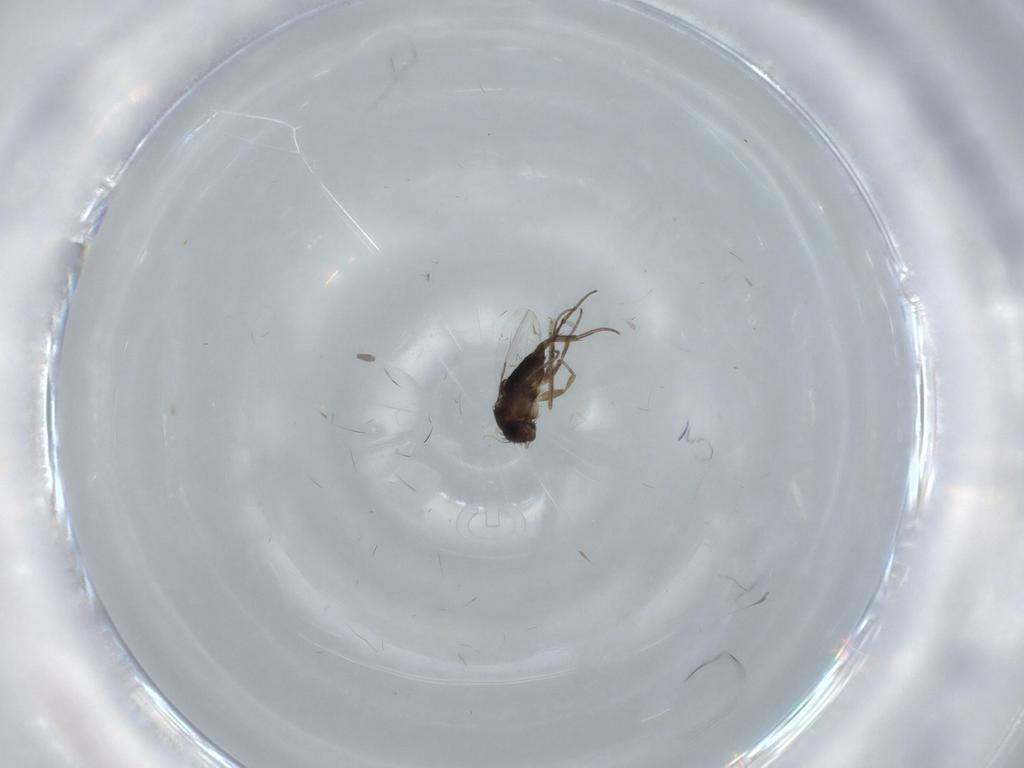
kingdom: Animalia
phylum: Arthropoda
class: Insecta
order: Diptera
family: Phoridae
